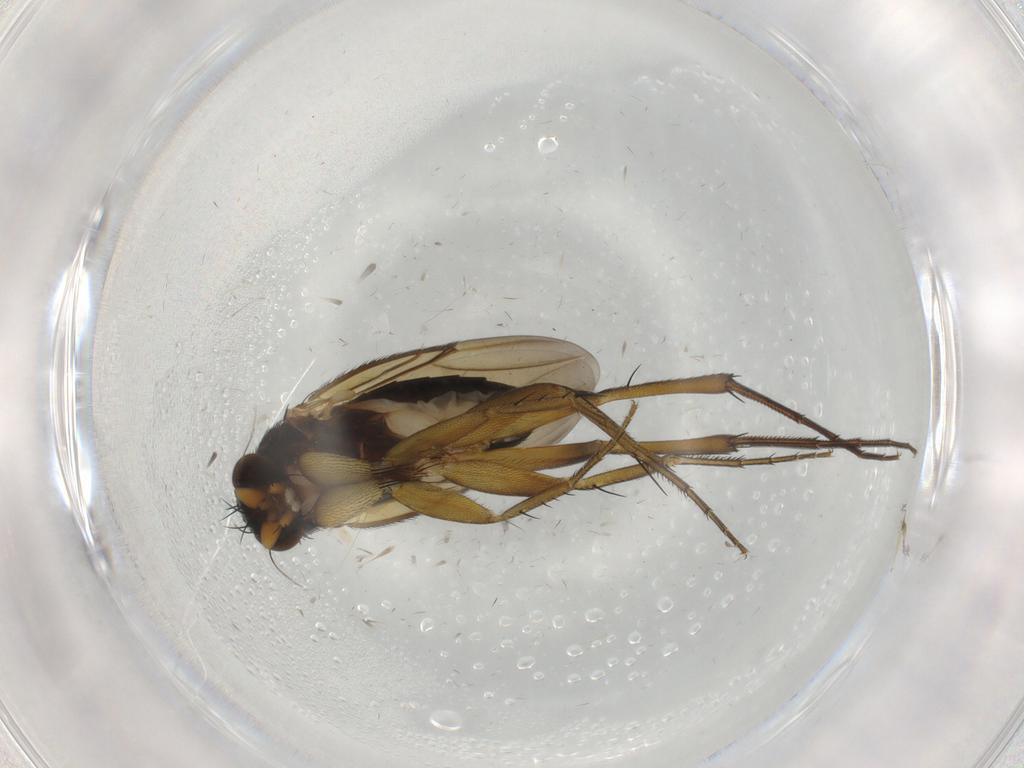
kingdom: Animalia
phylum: Arthropoda
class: Insecta
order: Diptera
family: Phoridae
